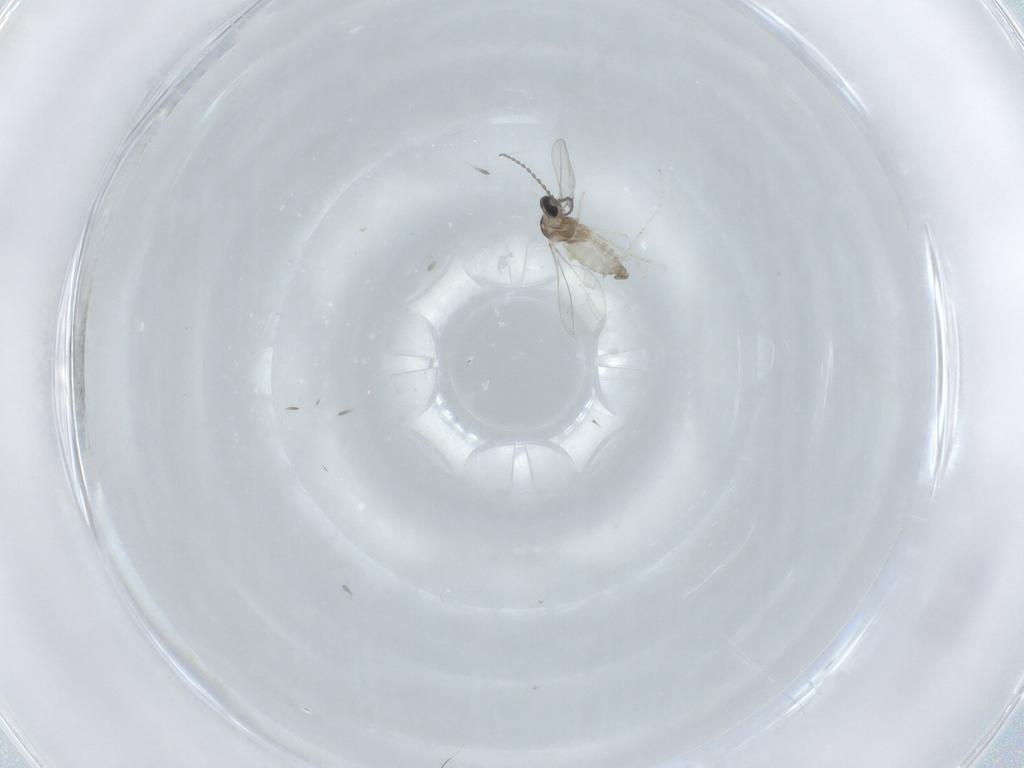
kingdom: Animalia
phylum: Arthropoda
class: Insecta
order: Diptera
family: Cecidomyiidae
